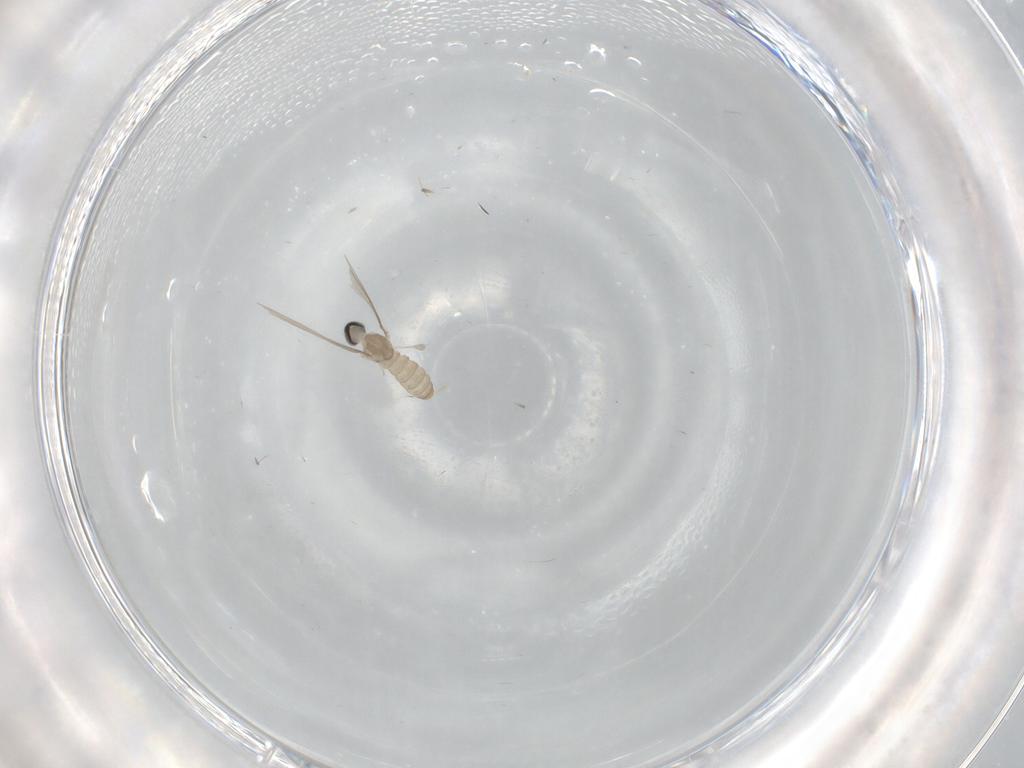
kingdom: Animalia
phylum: Arthropoda
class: Insecta
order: Diptera
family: Cecidomyiidae
